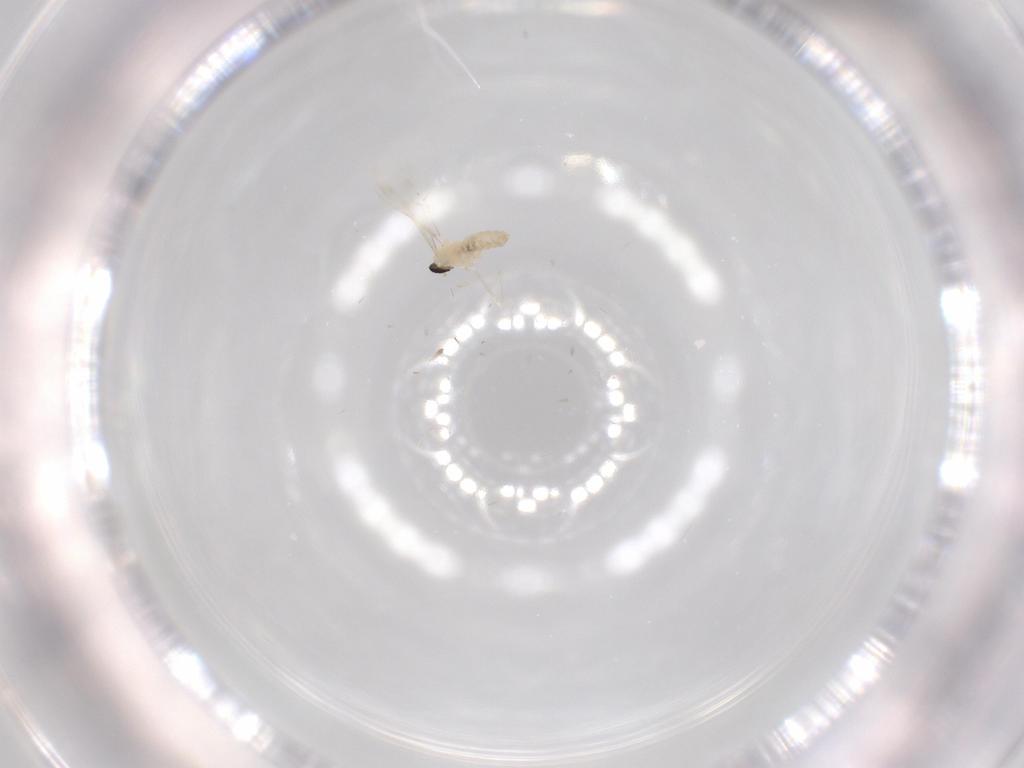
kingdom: Animalia
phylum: Arthropoda
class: Insecta
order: Diptera
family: Cecidomyiidae
